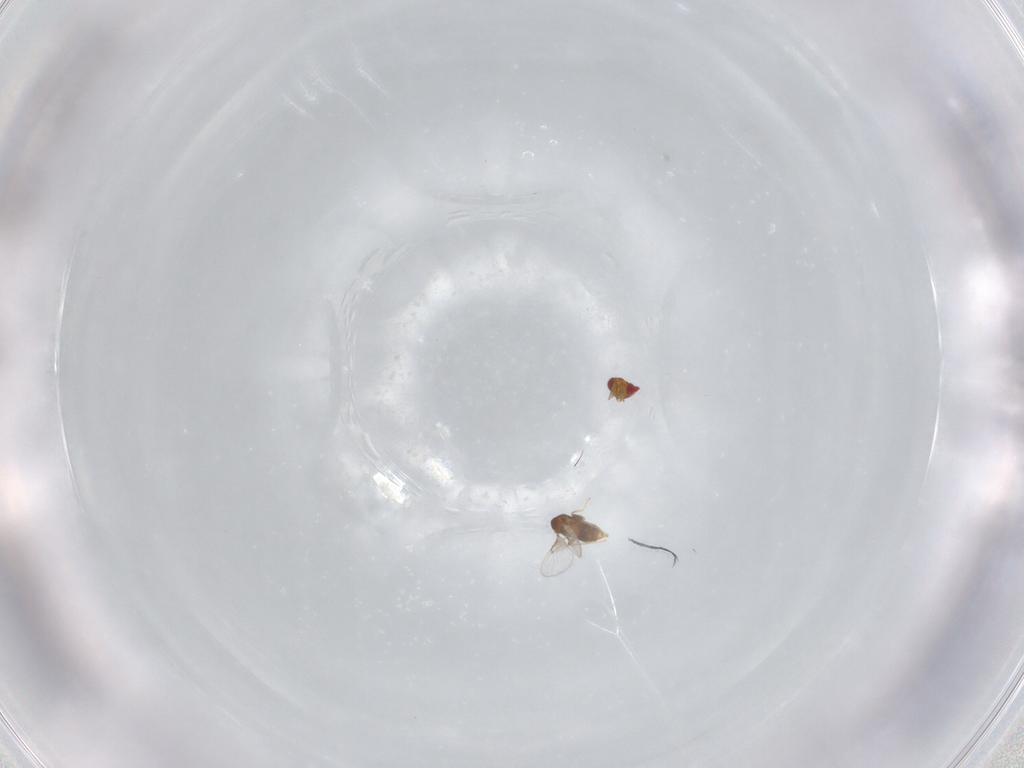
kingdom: Animalia
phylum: Arthropoda
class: Insecta
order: Hymenoptera
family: Trichogrammatidae
